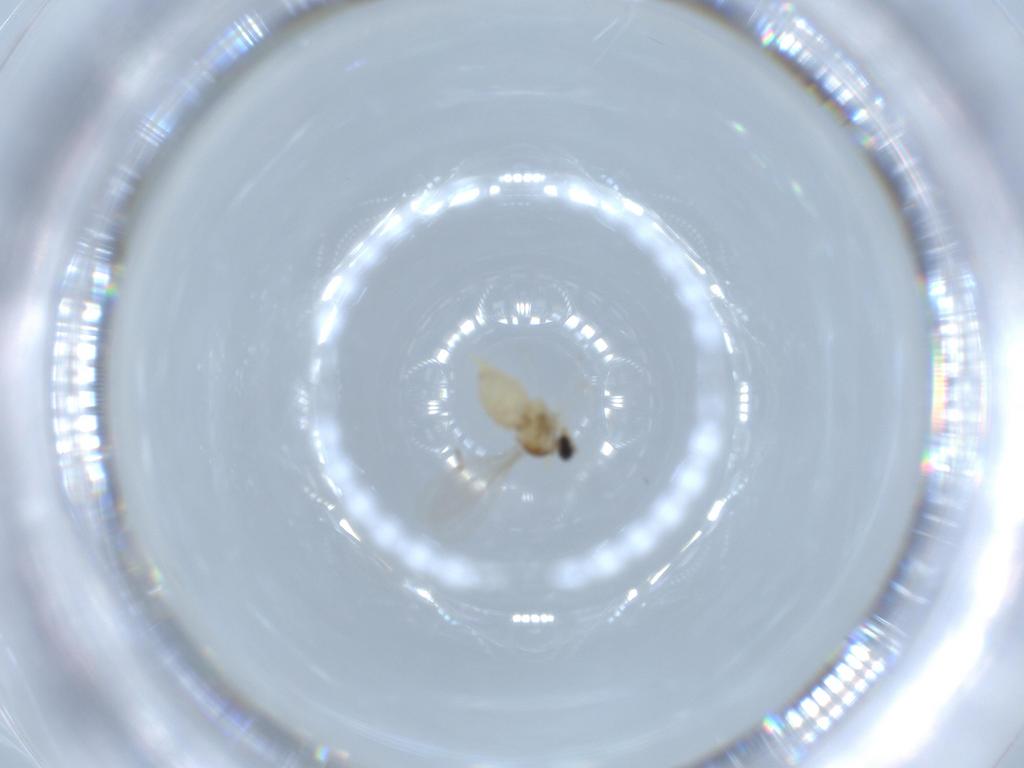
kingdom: Animalia
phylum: Arthropoda
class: Insecta
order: Diptera
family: Cecidomyiidae
